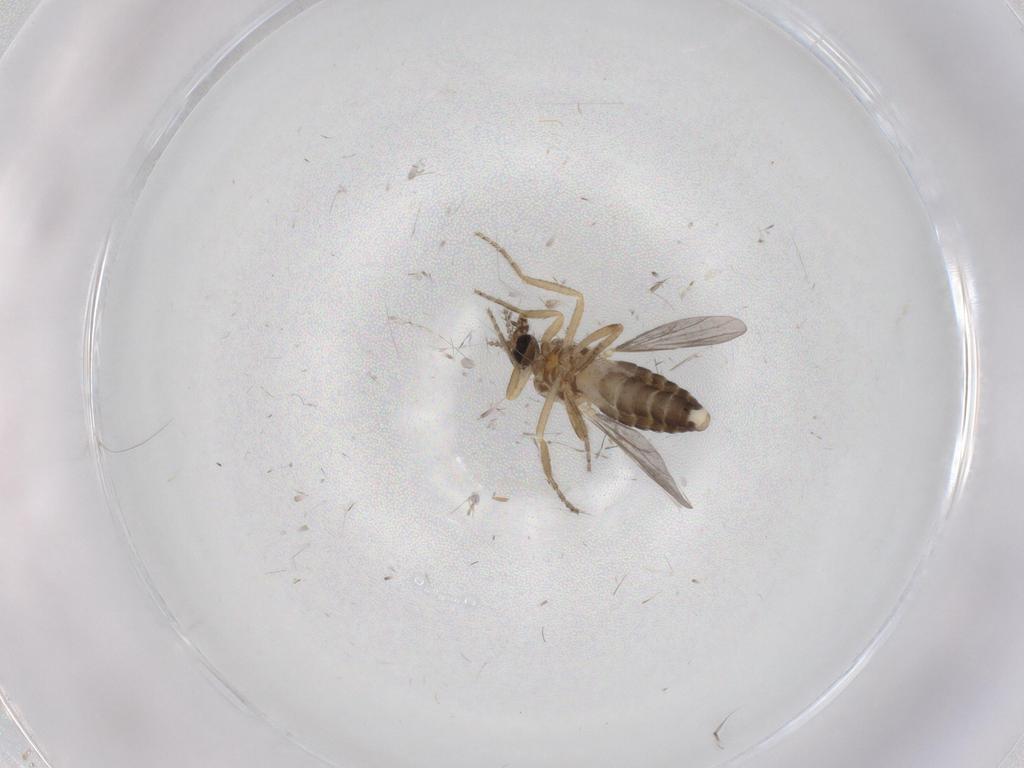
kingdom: Animalia
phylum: Arthropoda
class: Insecta
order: Diptera
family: Ceratopogonidae
